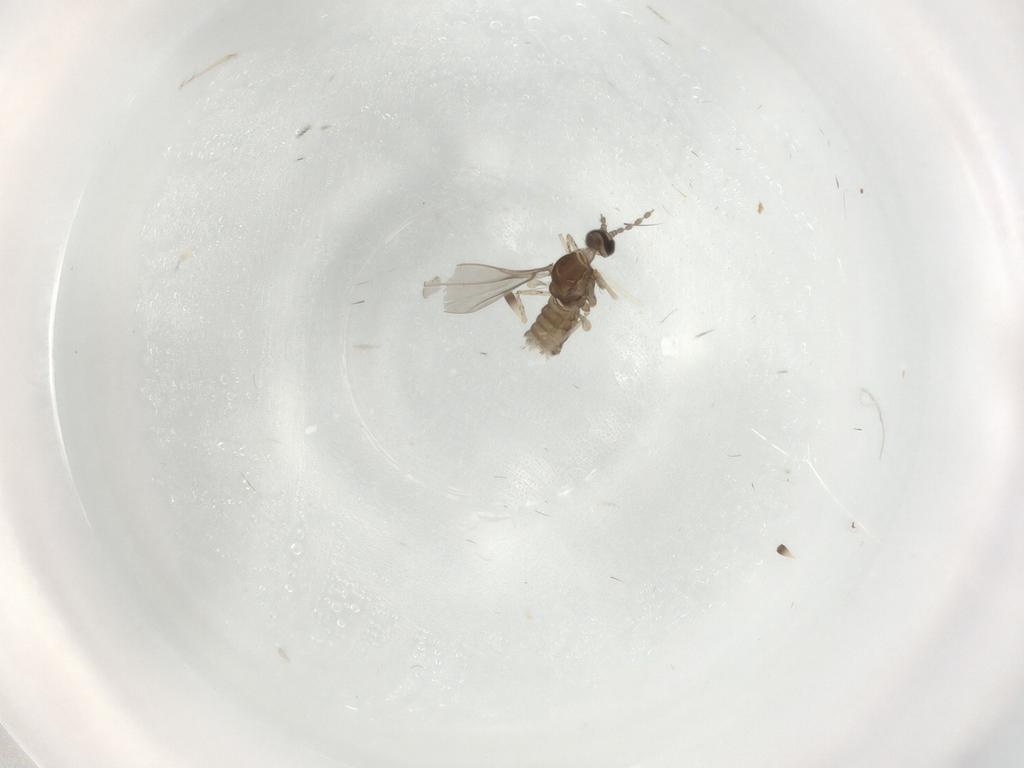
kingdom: Animalia
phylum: Arthropoda
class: Insecta
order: Diptera
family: Cecidomyiidae
